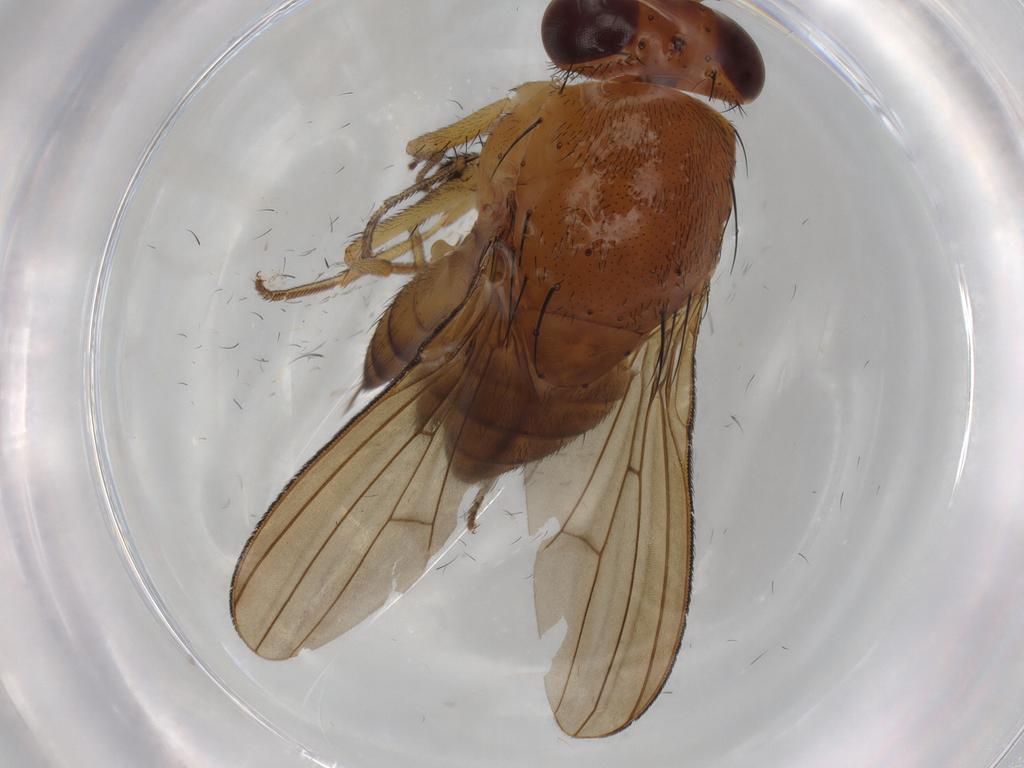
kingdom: Animalia
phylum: Arthropoda
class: Insecta
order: Diptera
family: Tabanidae
